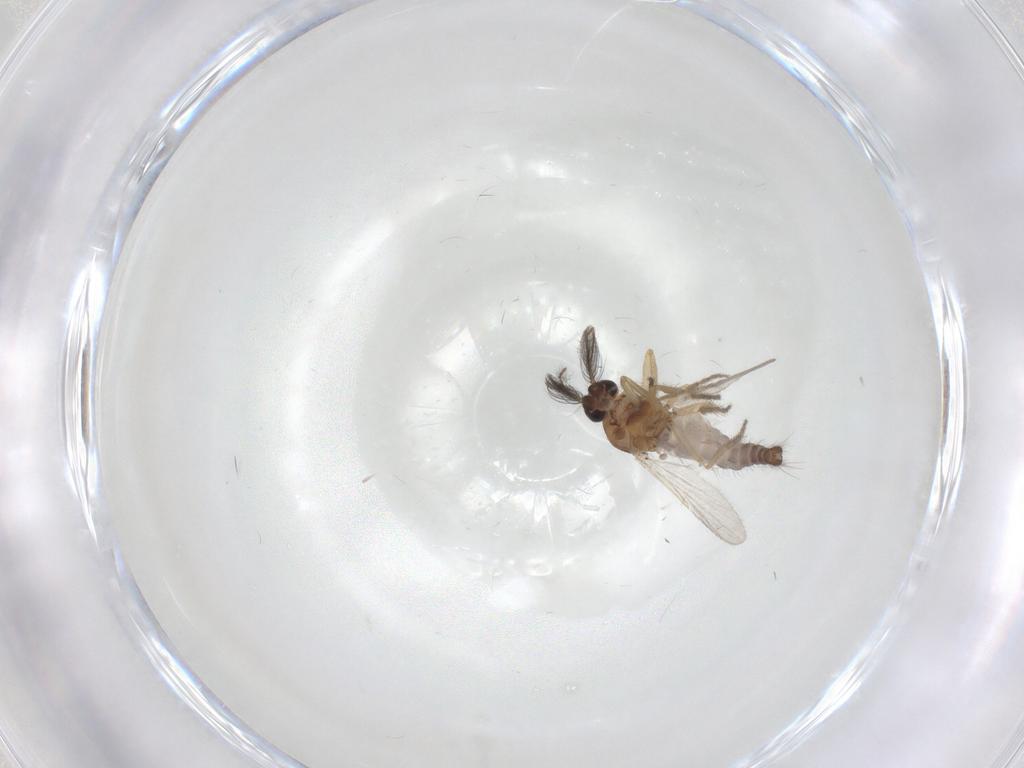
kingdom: Animalia
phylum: Arthropoda
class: Insecta
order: Diptera
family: Ceratopogonidae
